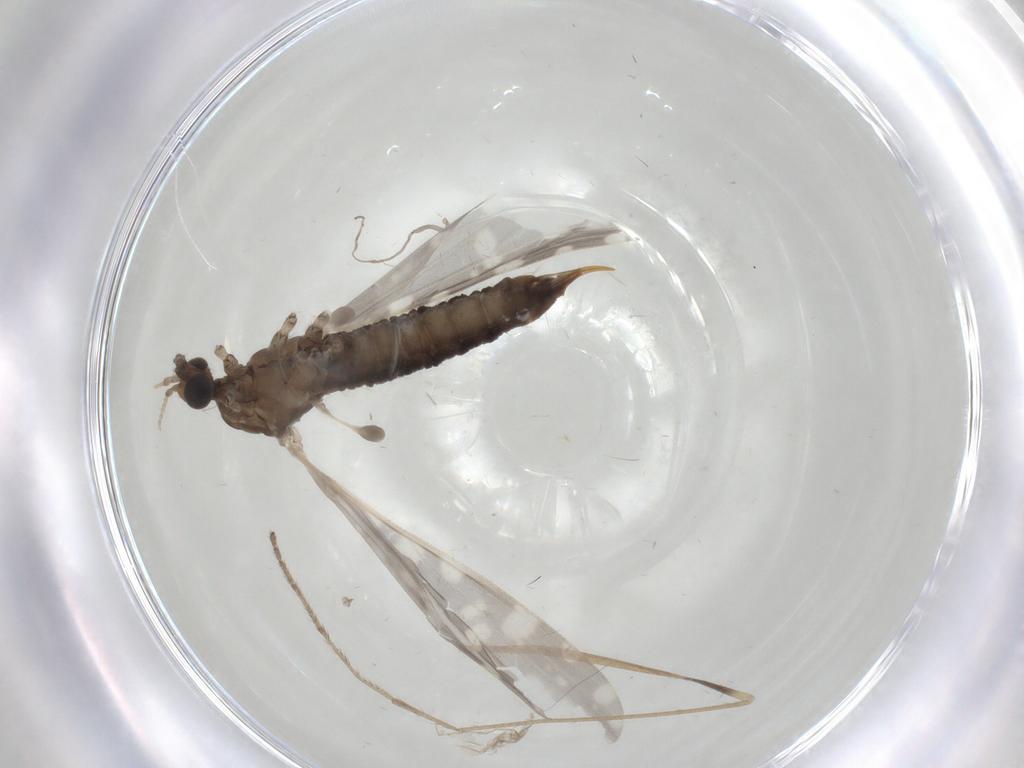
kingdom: Animalia
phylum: Arthropoda
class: Insecta
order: Diptera
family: Limoniidae
